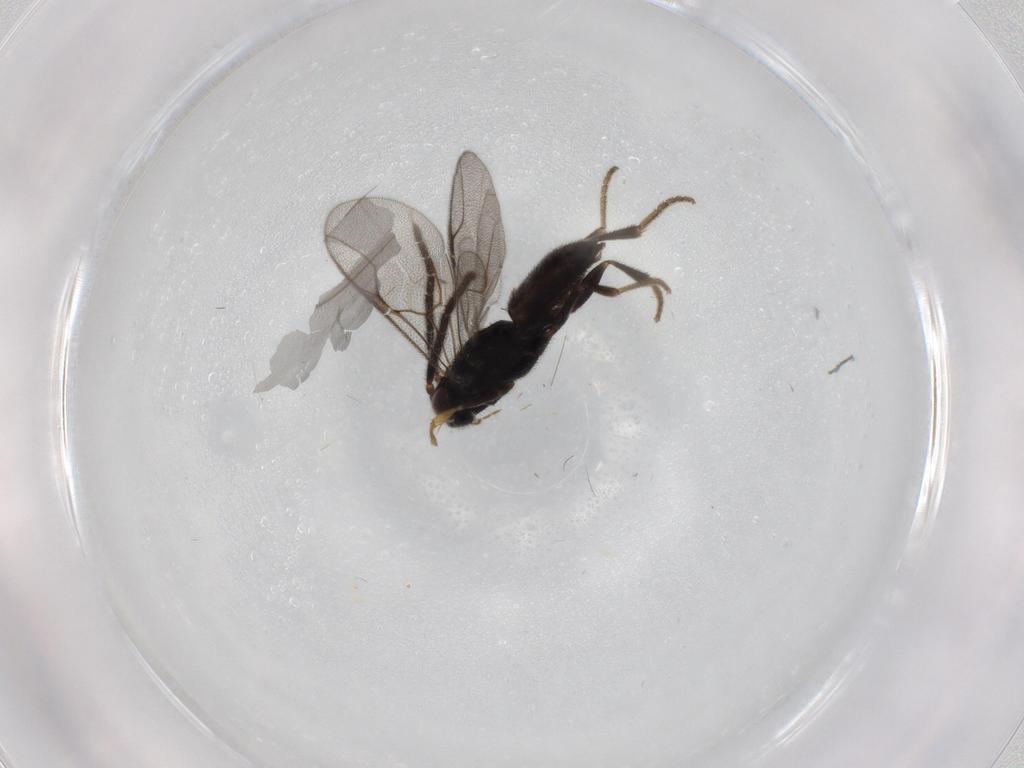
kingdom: Animalia
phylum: Arthropoda
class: Insecta
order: Hymenoptera
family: Dryinidae
